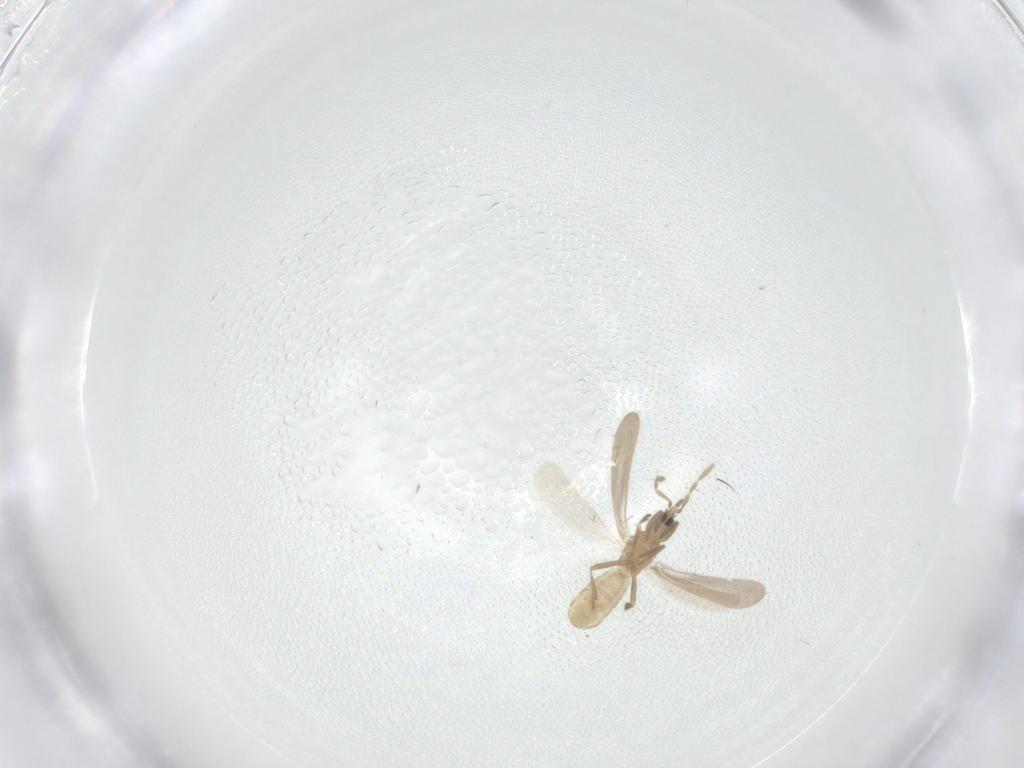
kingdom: Animalia
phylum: Arthropoda
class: Insecta
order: Hemiptera
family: Enicocephalidae
